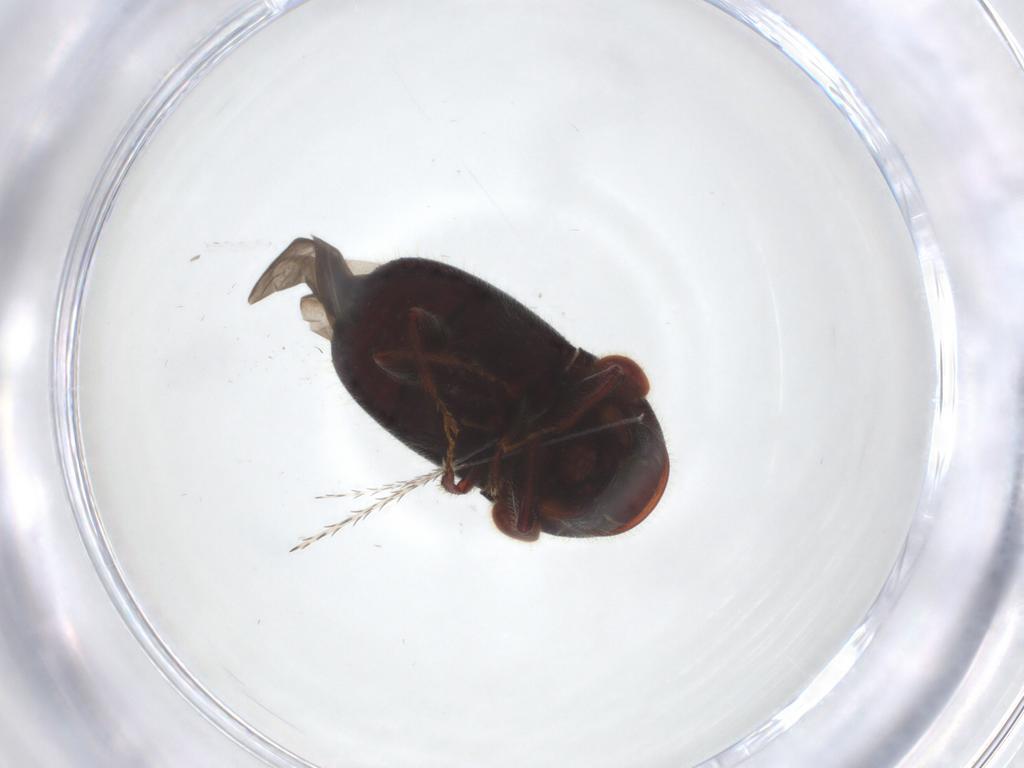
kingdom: Animalia
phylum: Arthropoda
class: Insecta
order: Coleoptera
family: Curculionidae
